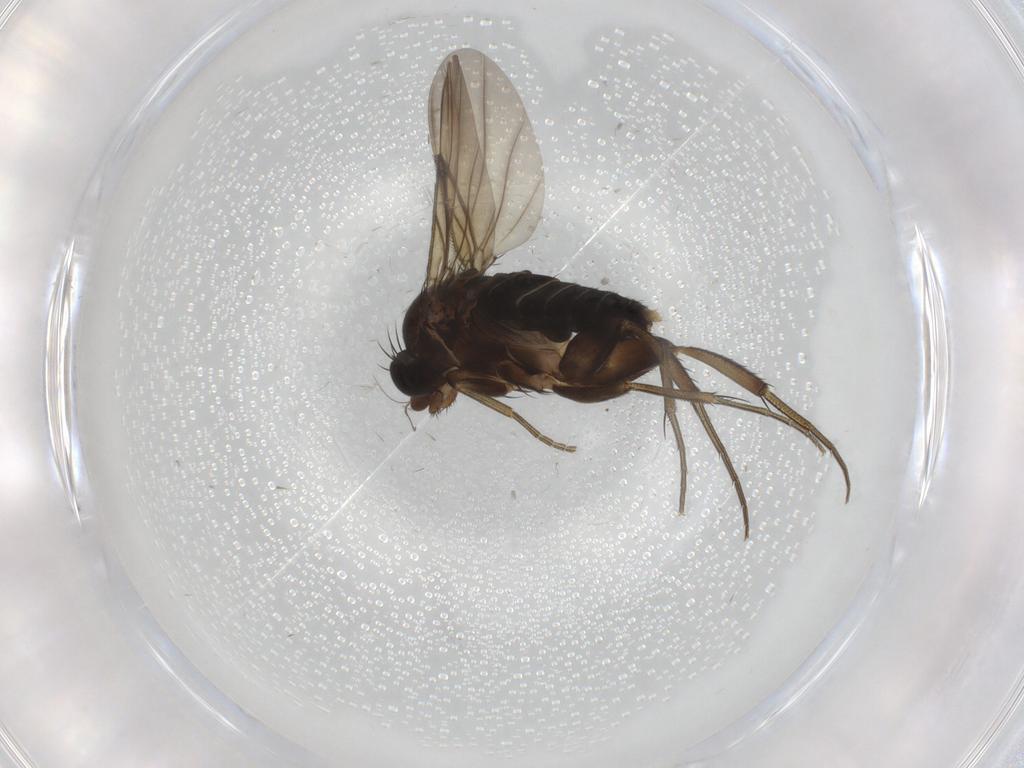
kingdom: Animalia
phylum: Arthropoda
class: Insecta
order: Diptera
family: Phoridae
